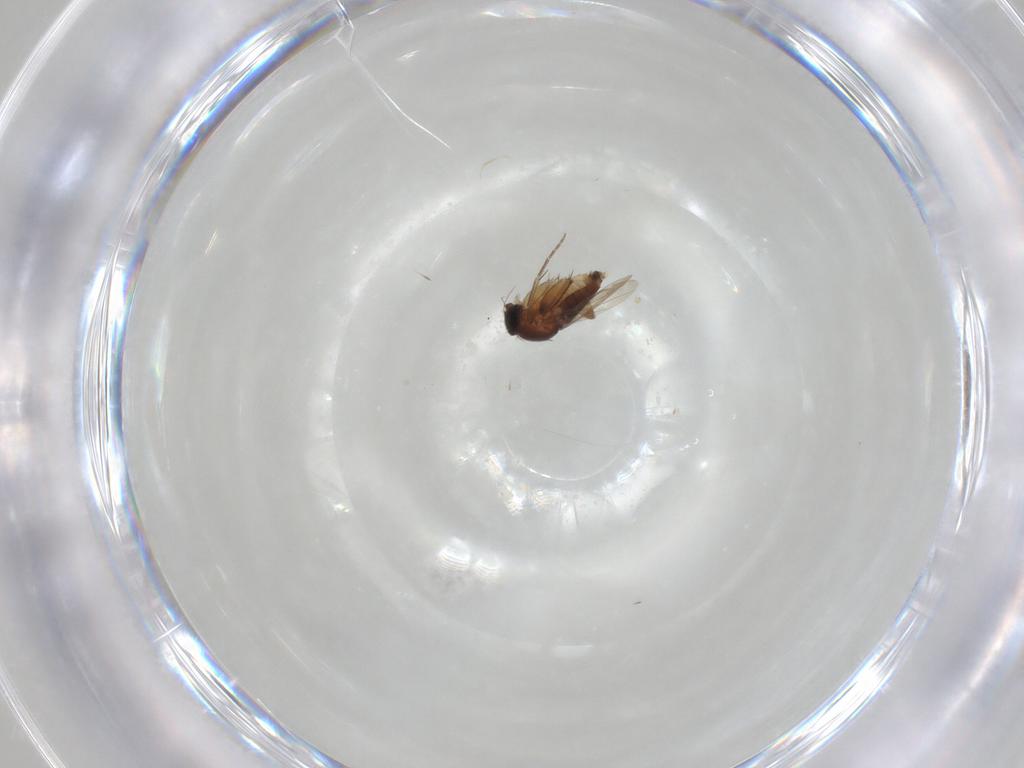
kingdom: Animalia
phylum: Arthropoda
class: Insecta
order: Diptera
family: Phoridae
